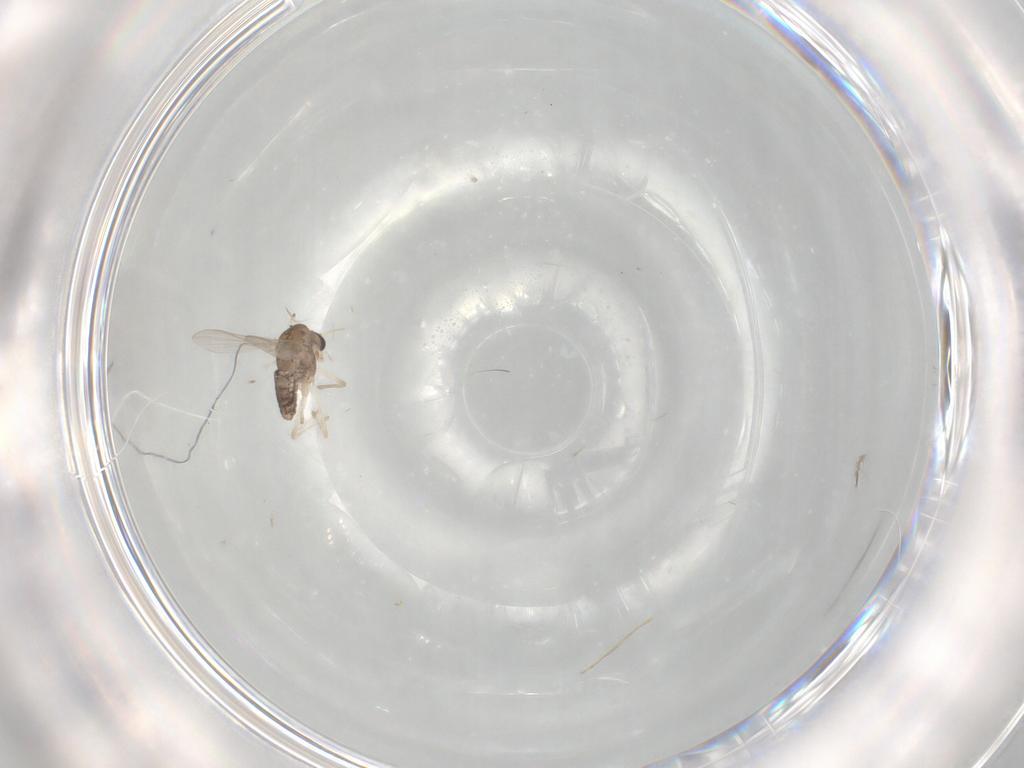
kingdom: Animalia
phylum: Arthropoda
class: Insecta
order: Diptera
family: Chironomidae
